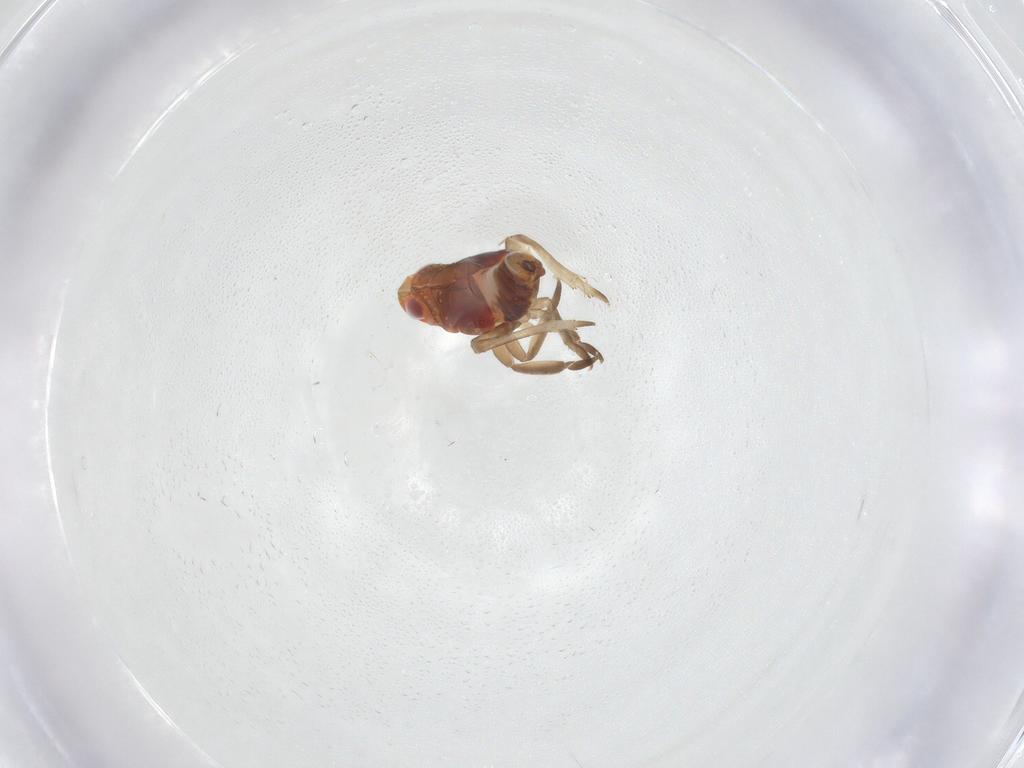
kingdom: Animalia
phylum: Arthropoda
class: Insecta
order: Hemiptera
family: Fulgoroidea_incertae_sedis
